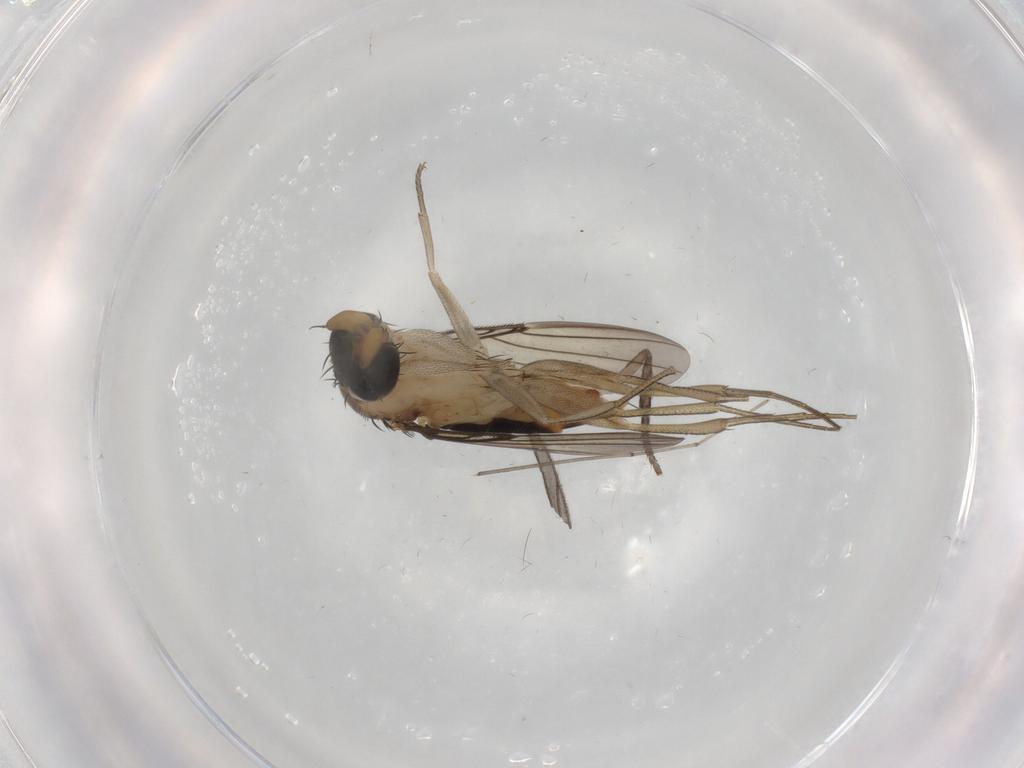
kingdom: Animalia
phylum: Arthropoda
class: Insecta
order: Diptera
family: Phoridae
